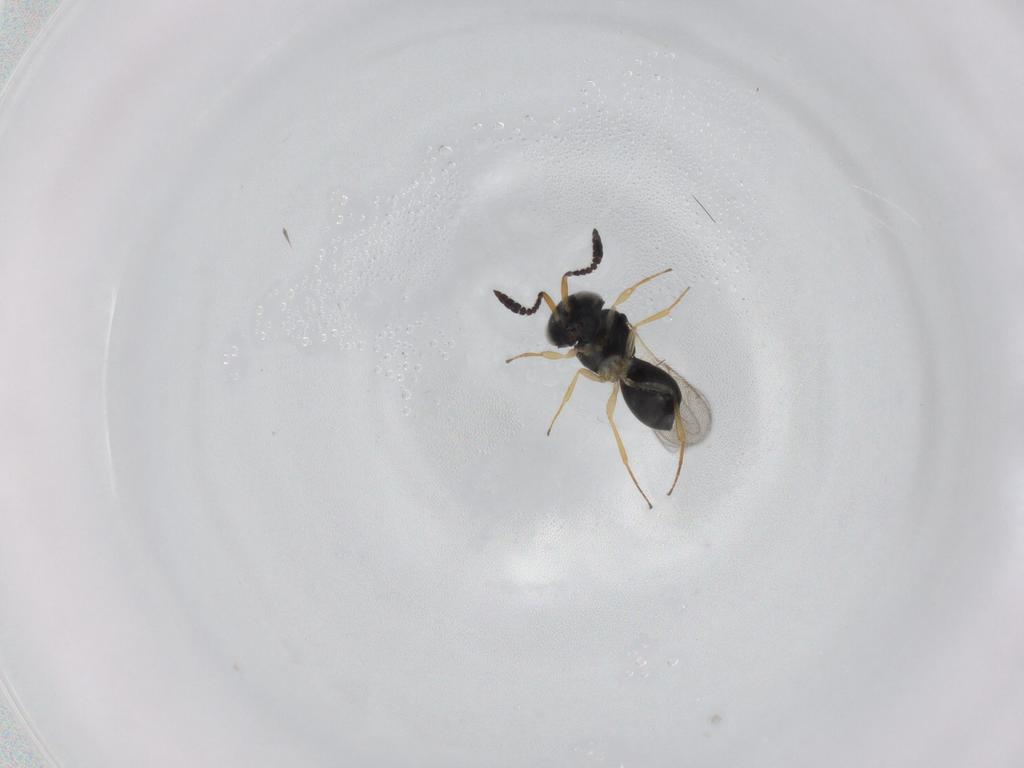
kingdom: Animalia
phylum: Arthropoda
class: Insecta
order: Hymenoptera
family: Scelionidae
